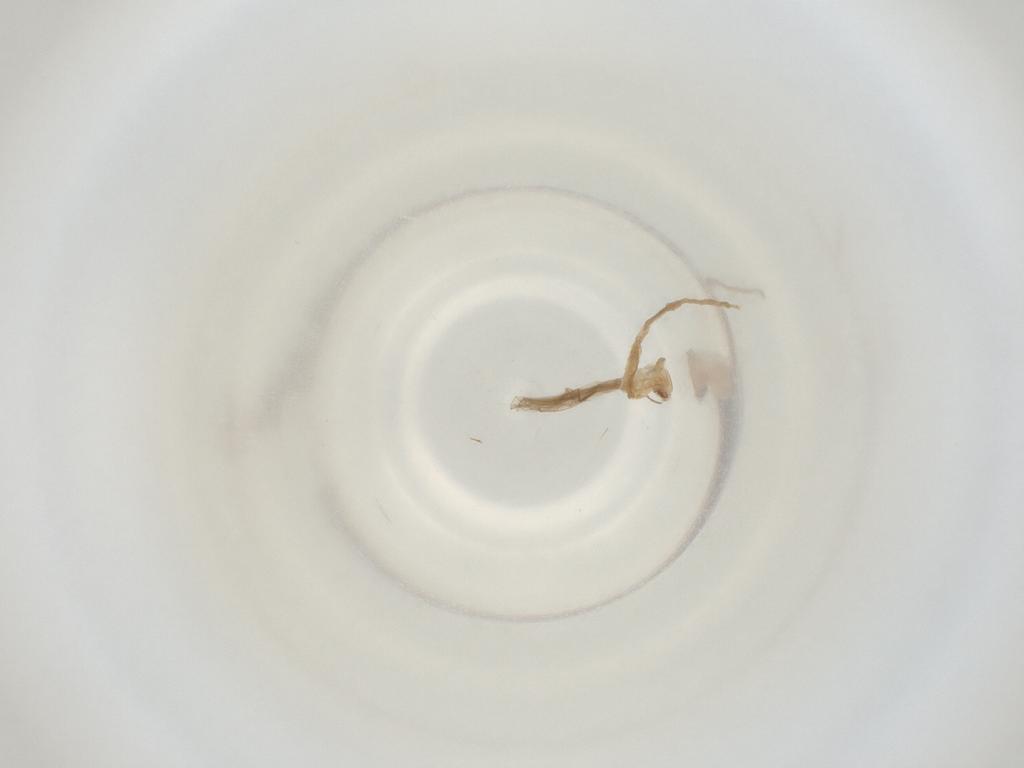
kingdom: Animalia
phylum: Arthropoda
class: Insecta
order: Diptera
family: Cecidomyiidae
